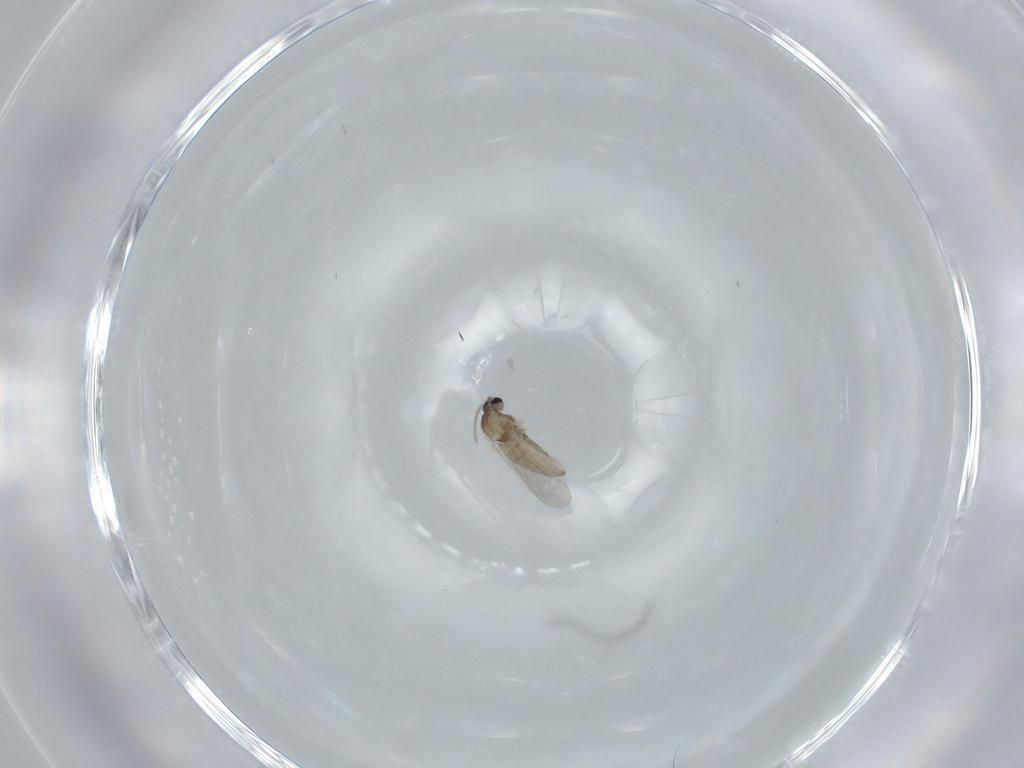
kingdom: Animalia
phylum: Arthropoda
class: Insecta
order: Diptera
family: Cecidomyiidae
